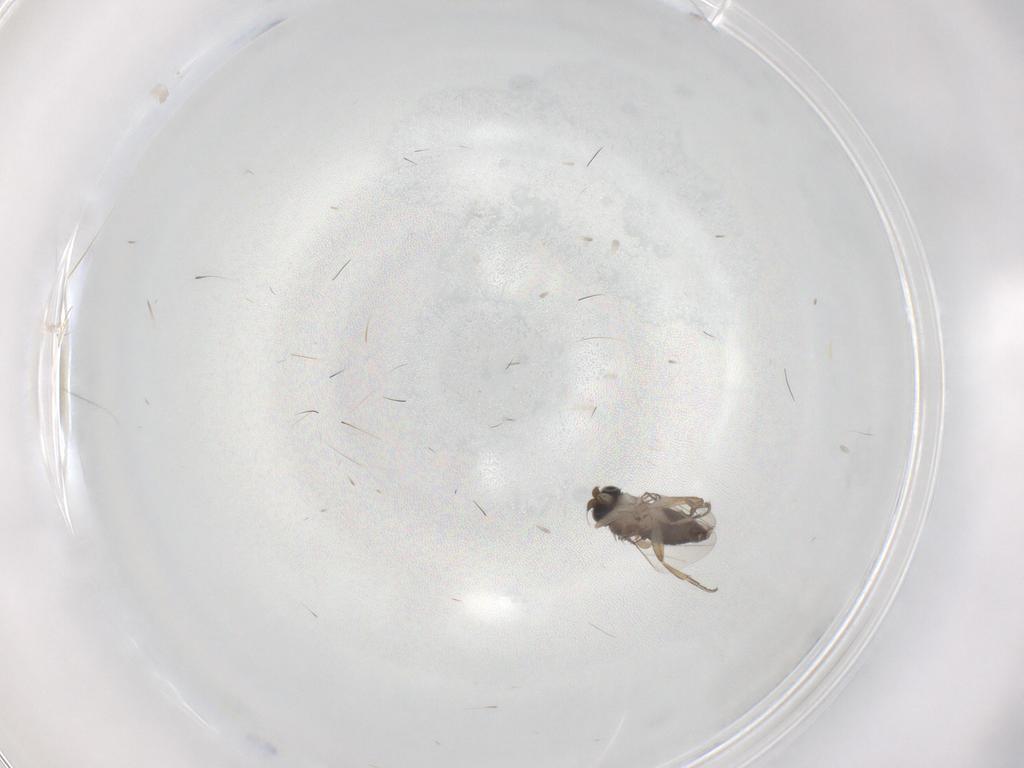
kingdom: Animalia
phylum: Arthropoda
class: Insecta
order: Diptera
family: Phoridae
